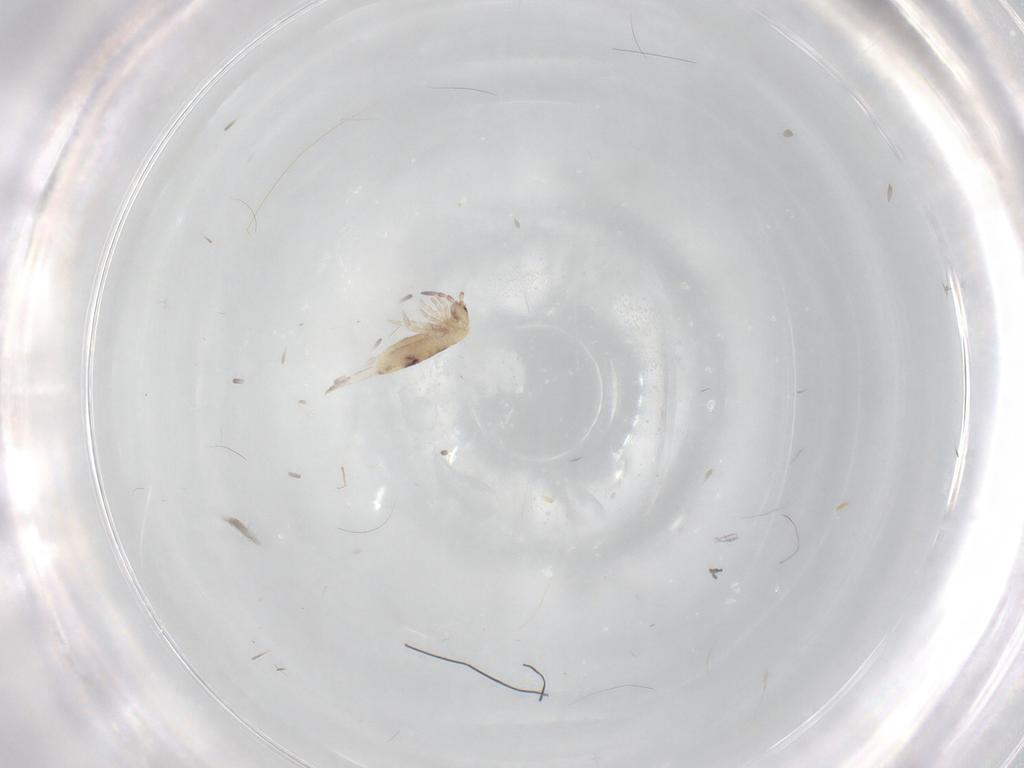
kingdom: Animalia
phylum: Arthropoda
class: Collembola
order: Entomobryomorpha
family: Entomobryidae
